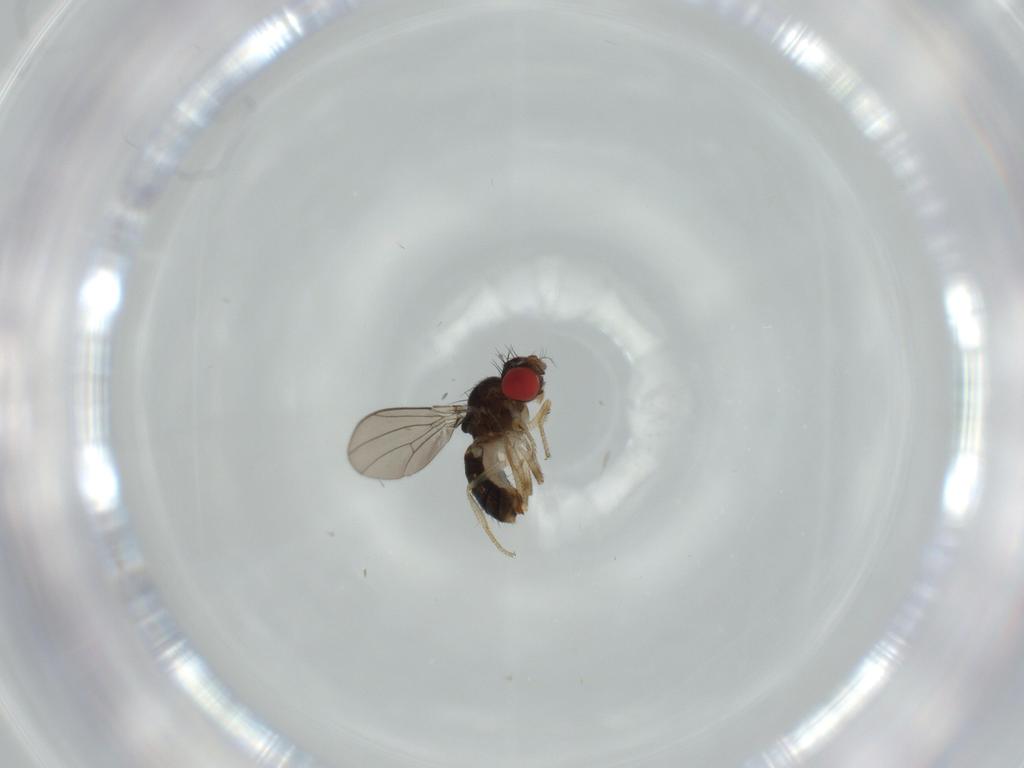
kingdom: Animalia
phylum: Arthropoda
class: Insecta
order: Diptera
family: Drosophilidae
